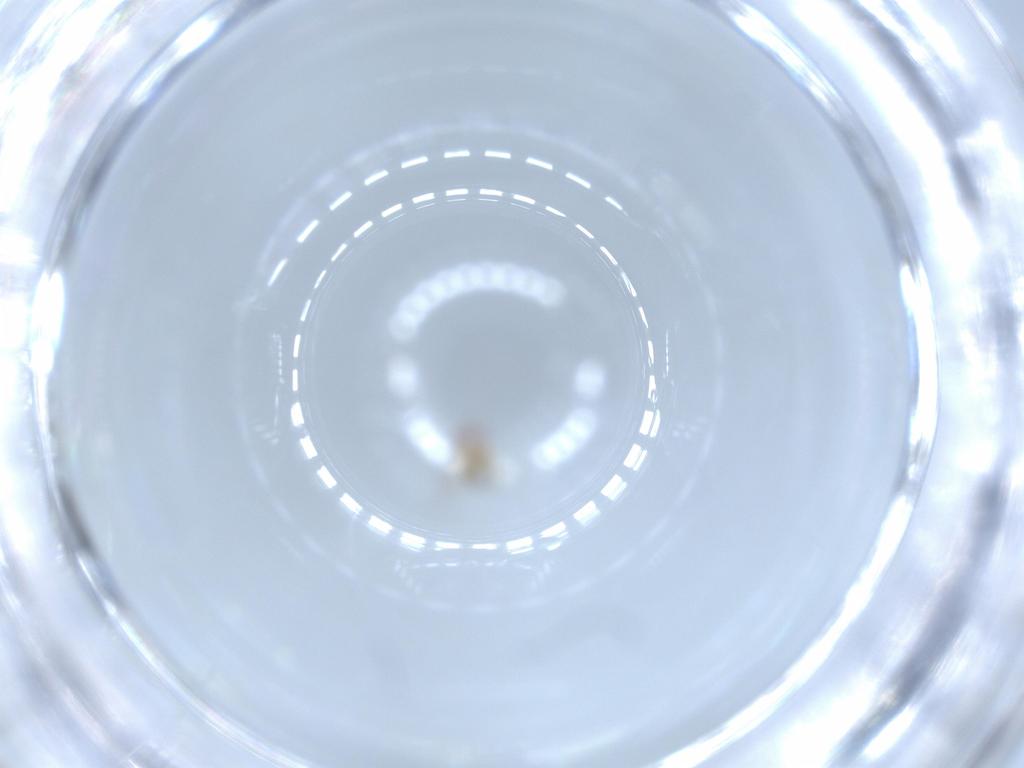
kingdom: Animalia
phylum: Arthropoda
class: Insecta
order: Hymenoptera
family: Trichogrammatidae
